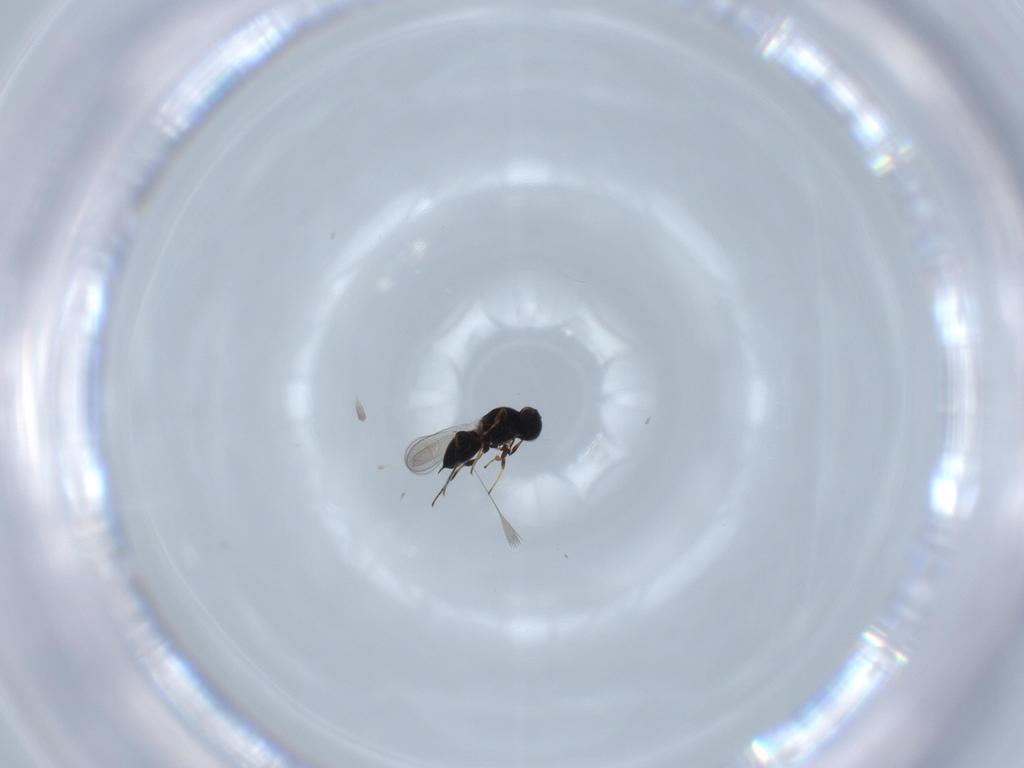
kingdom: Animalia
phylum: Arthropoda
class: Insecta
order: Hymenoptera
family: Platygastridae
